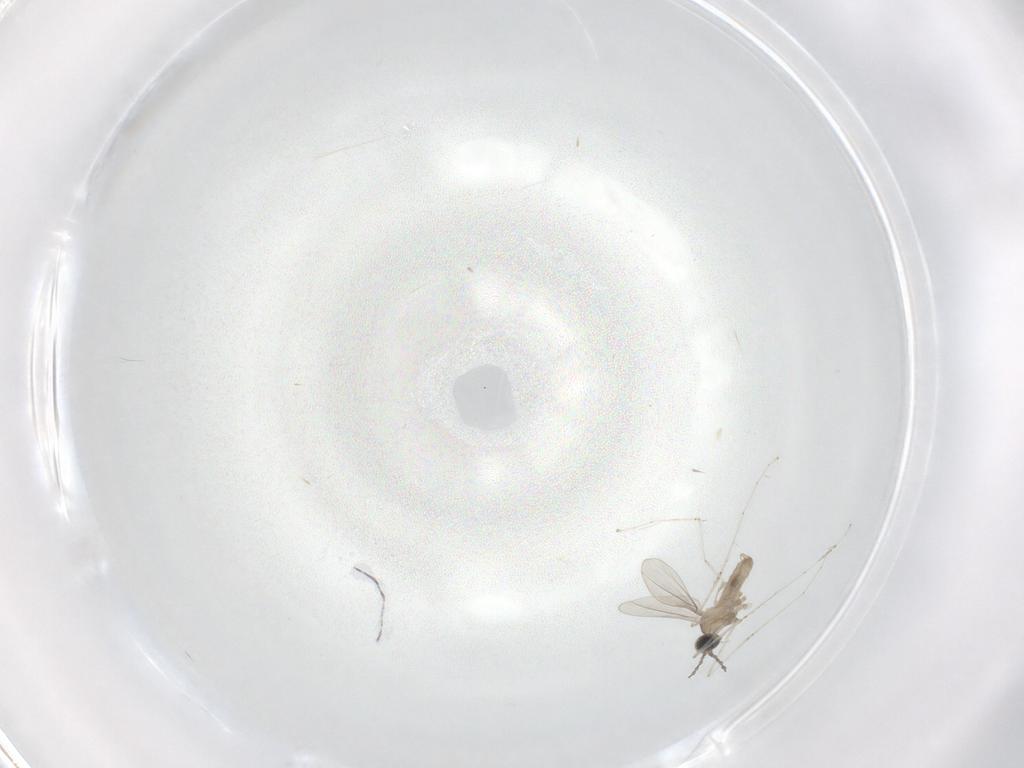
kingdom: Animalia
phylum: Arthropoda
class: Insecta
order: Diptera
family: Cecidomyiidae
